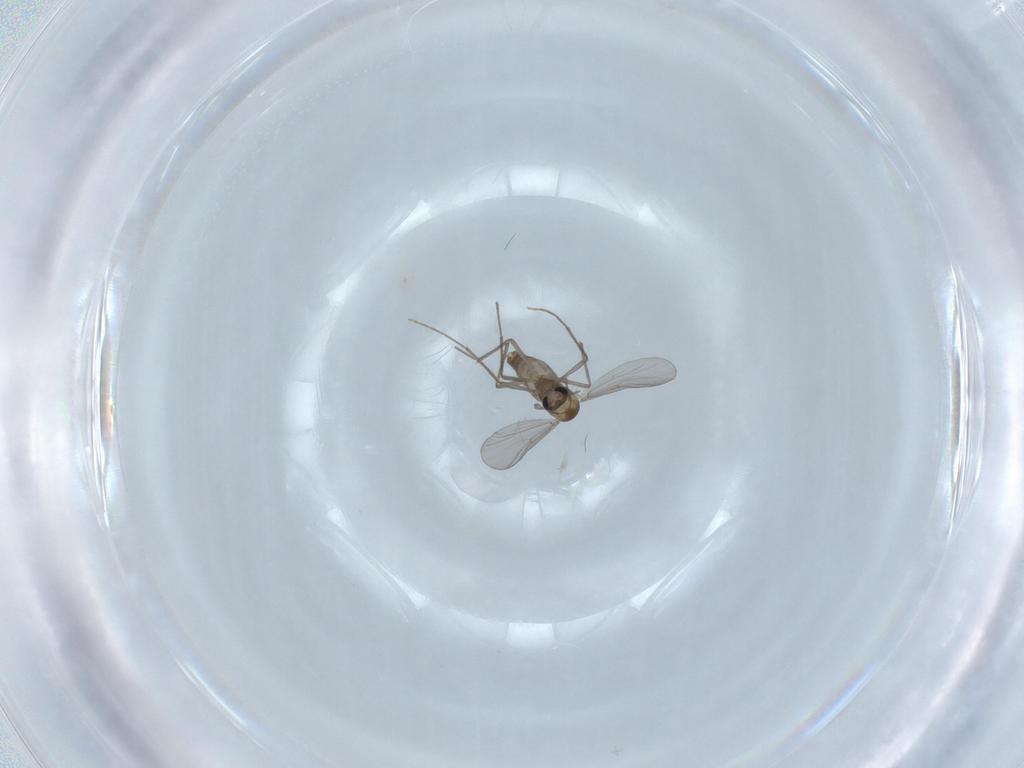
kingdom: Animalia
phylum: Arthropoda
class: Insecta
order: Diptera
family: Chironomidae
